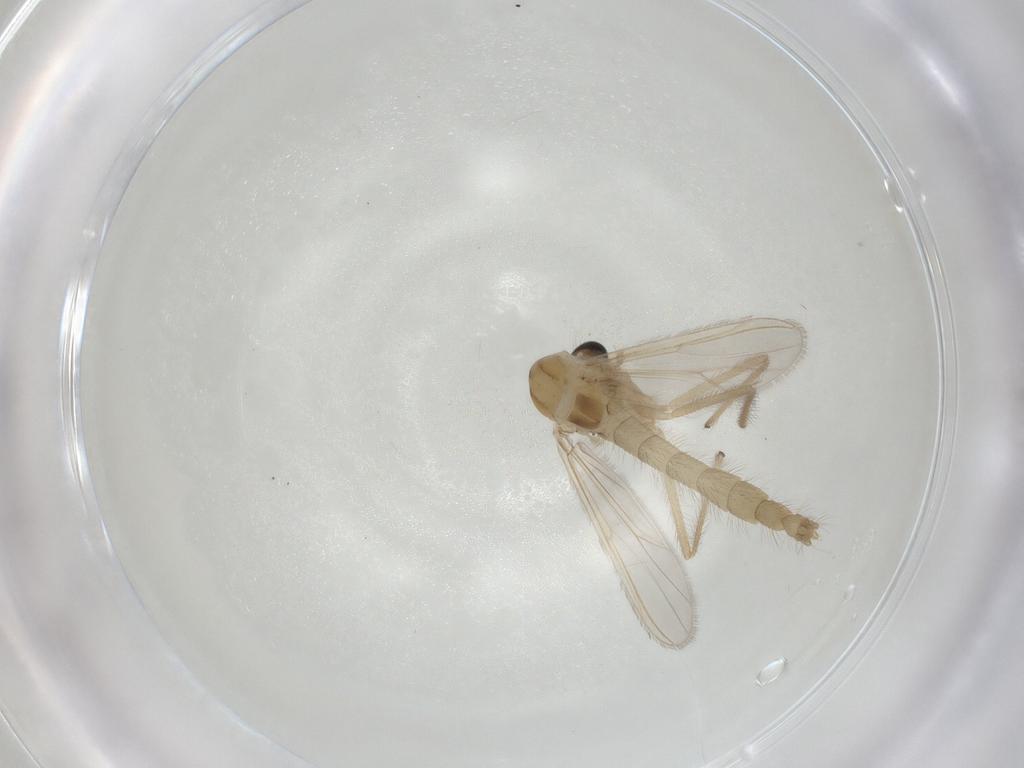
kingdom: Animalia
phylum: Arthropoda
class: Insecta
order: Diptera
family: Chironomidae
